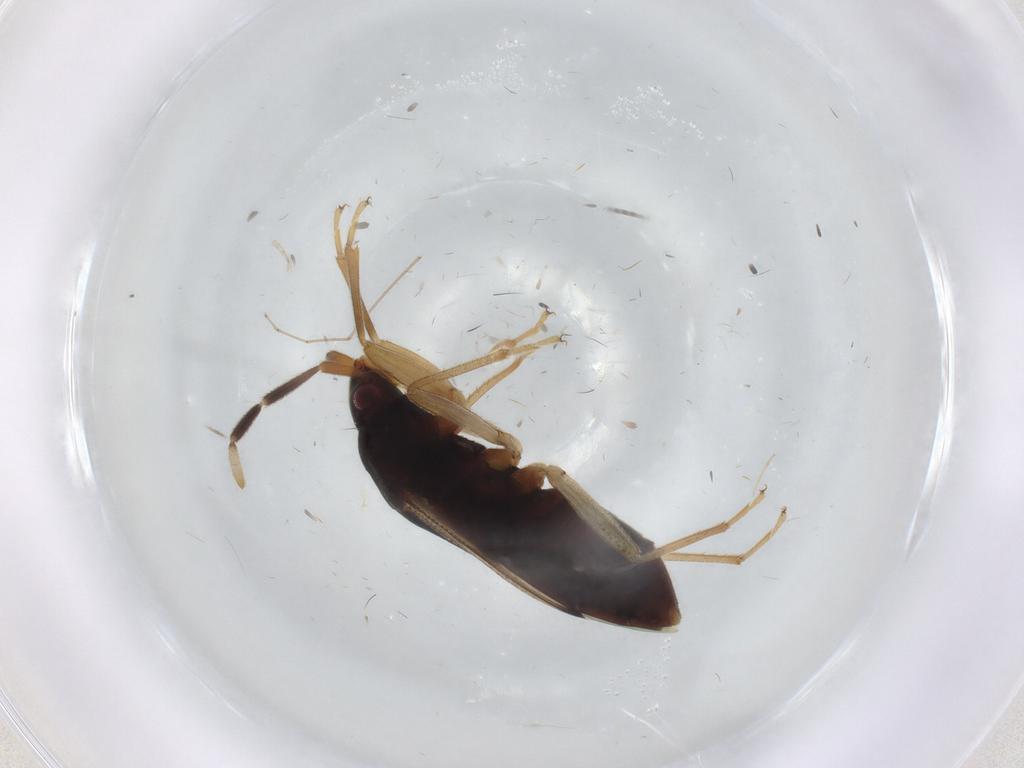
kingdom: Animalia
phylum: Arthropoda
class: Insecta
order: Hemiptera
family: Rhyparochromidae
